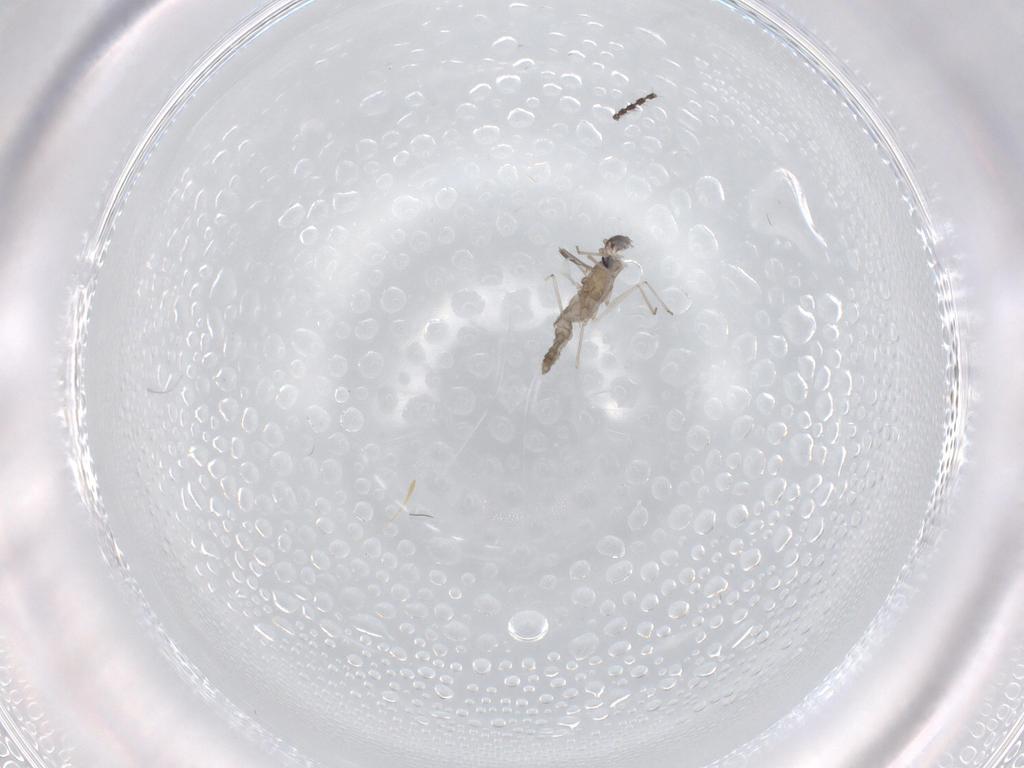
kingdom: Animalia
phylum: Arthropoda
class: Insecta
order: Diptera
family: Cecidomyiidae
